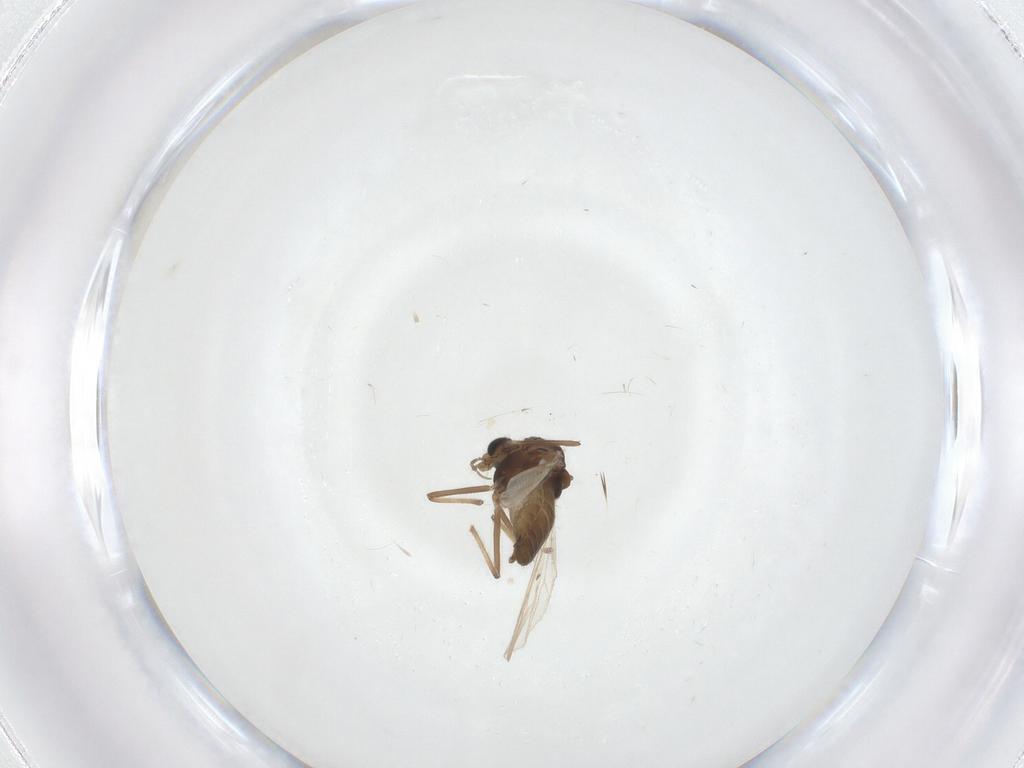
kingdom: Animalia
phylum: Arthropoda
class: Insecta
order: Diptera
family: Chironomidae
